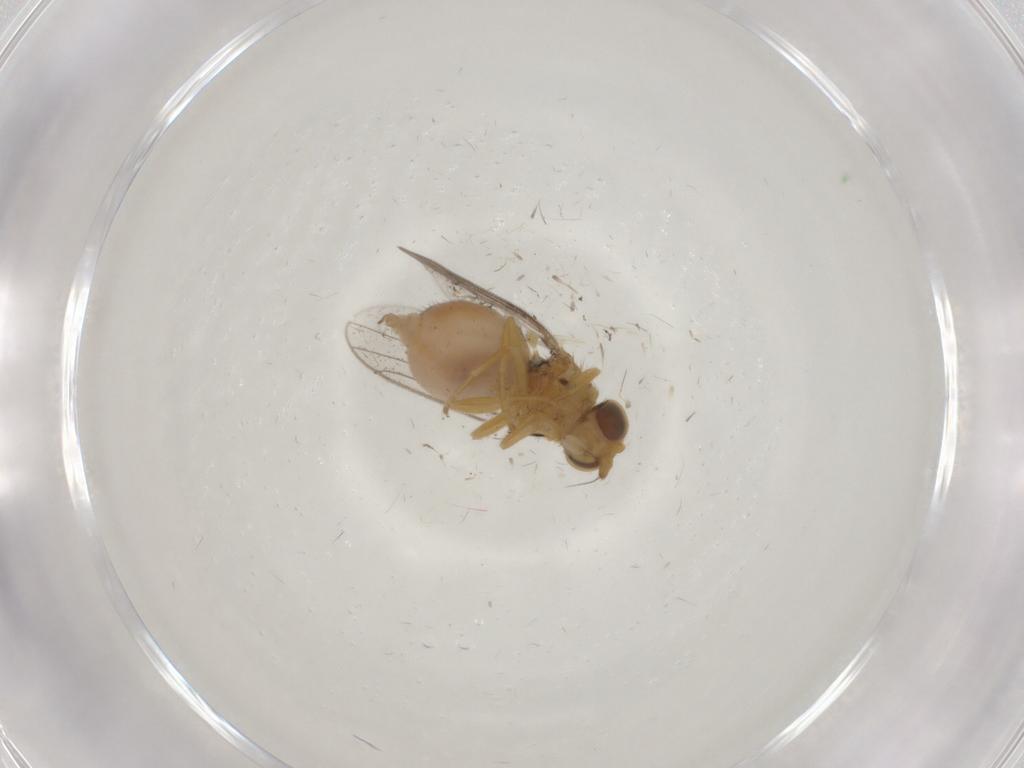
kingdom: Animalia
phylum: Arthropoda
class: Insecta
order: Diptera
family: Chloropidae
